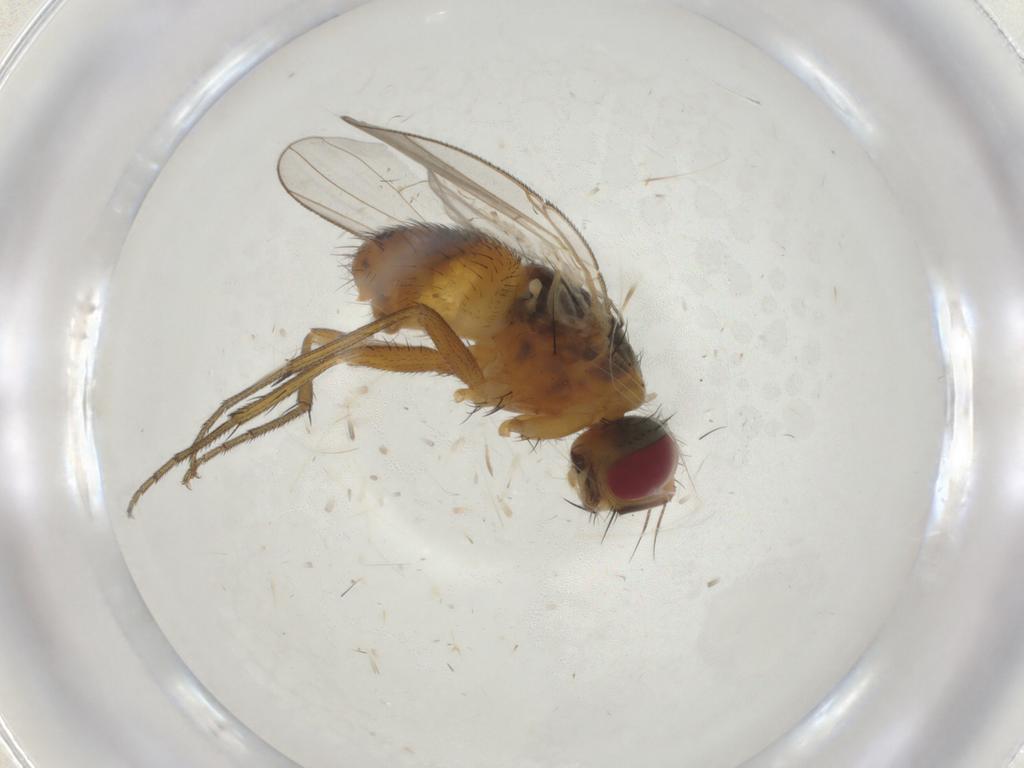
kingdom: Animalia
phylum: Arthropoda
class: Insecta
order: Diptera
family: Muscidae
